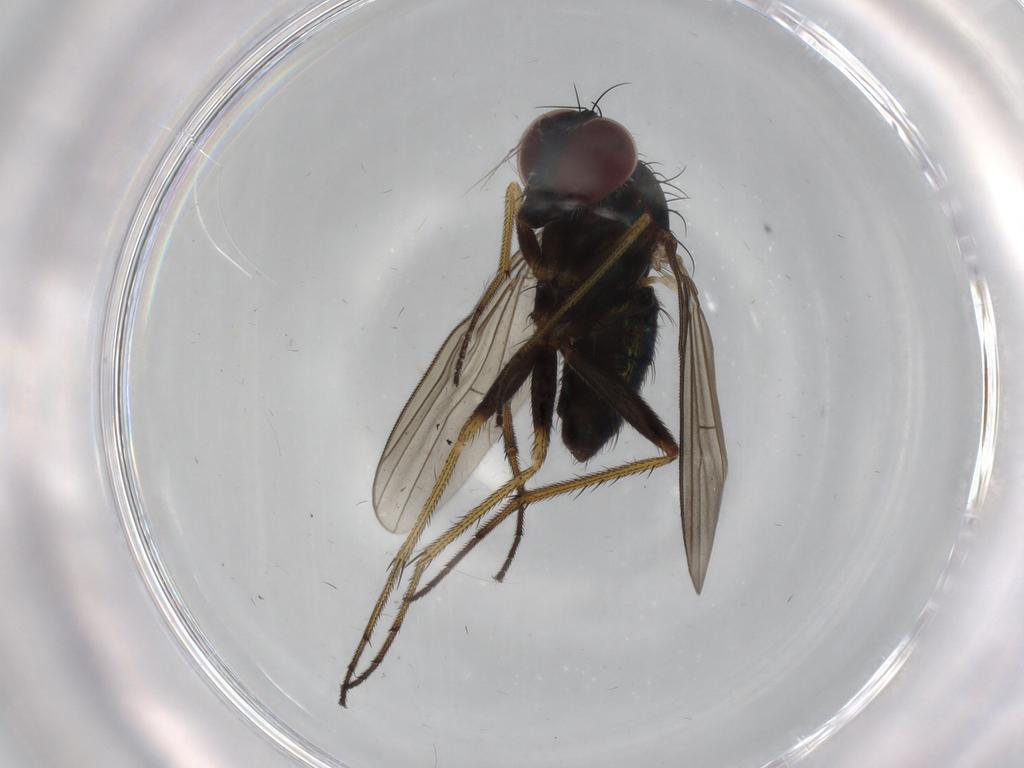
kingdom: Animalia
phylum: Arthropoda
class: Insecta
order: Diptera
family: Dolichopodidae
